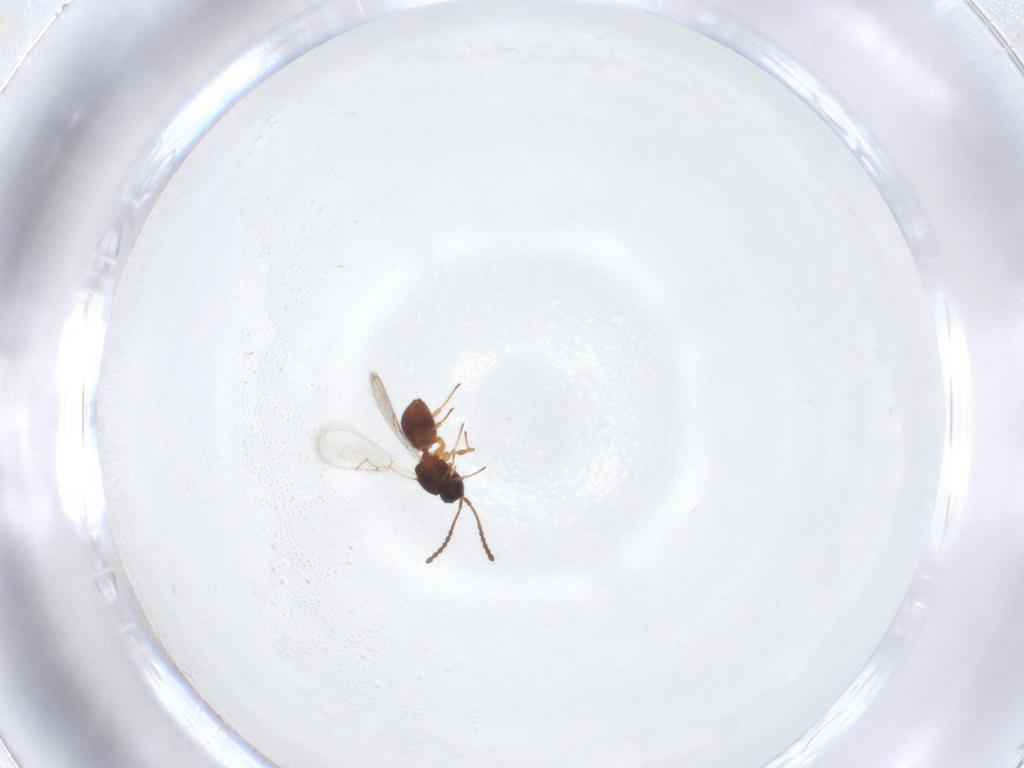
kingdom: Animalia
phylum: Arthropoda
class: Insecta
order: Hymenoptera
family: Figitidae
